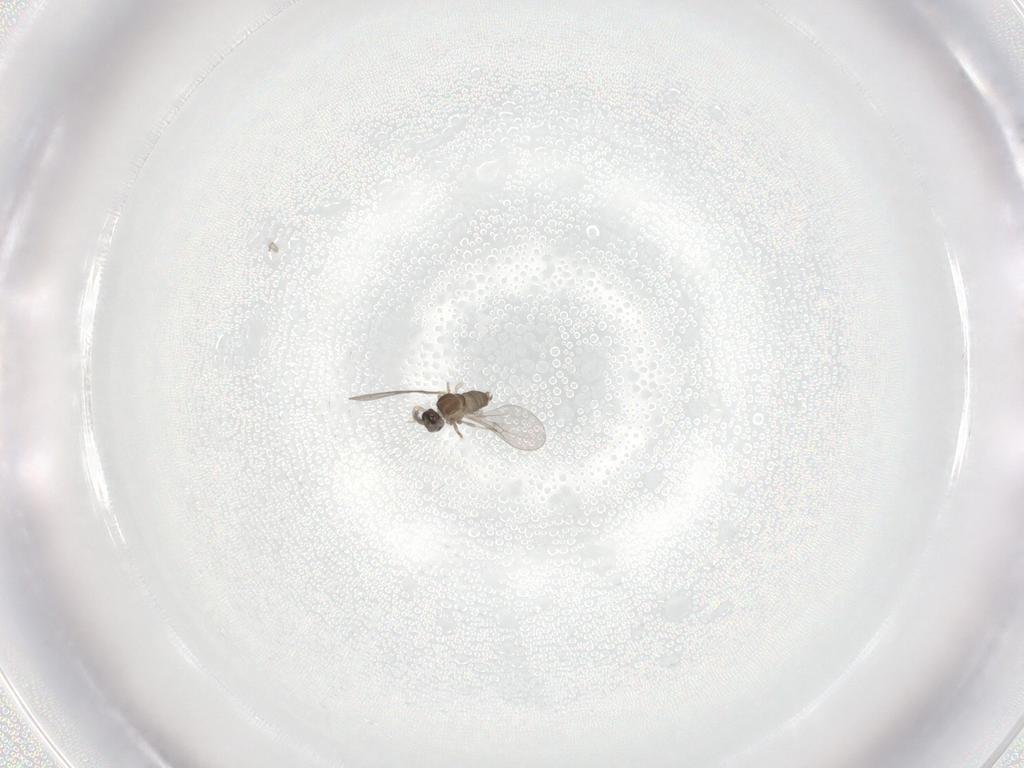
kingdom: Animalia
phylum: Arthropoda
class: Insecta
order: Diptera
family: Cecidomyiidae
